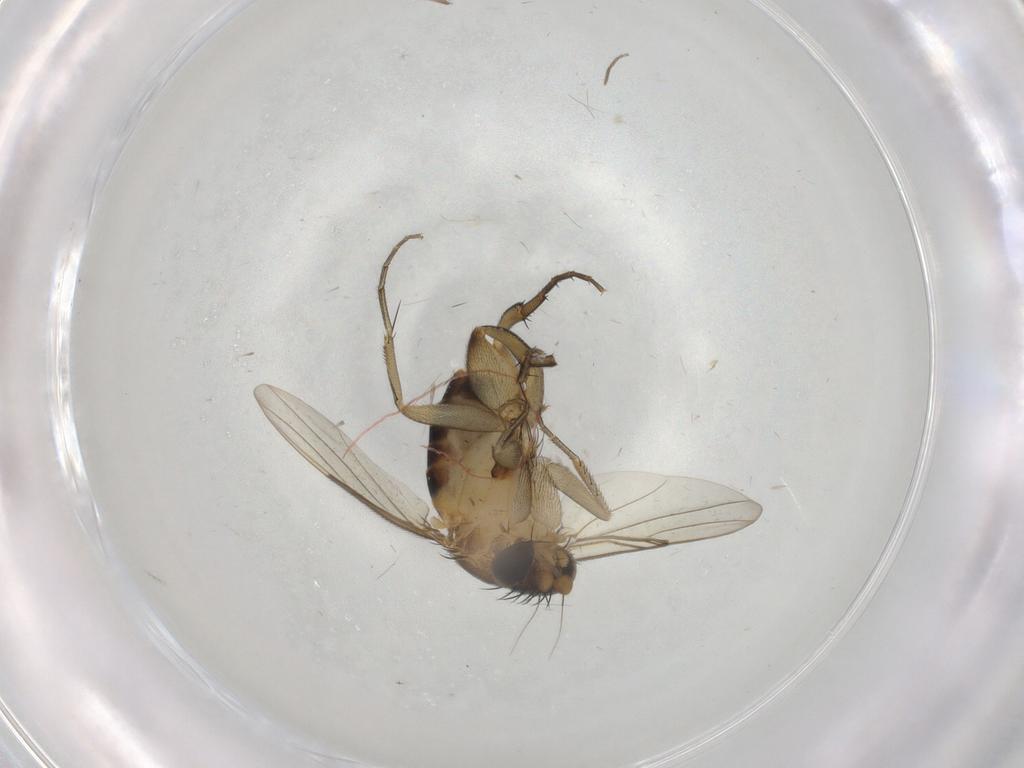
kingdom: Animalia
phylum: Arthropoda
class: Insecta
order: Diptera
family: Phoridae
